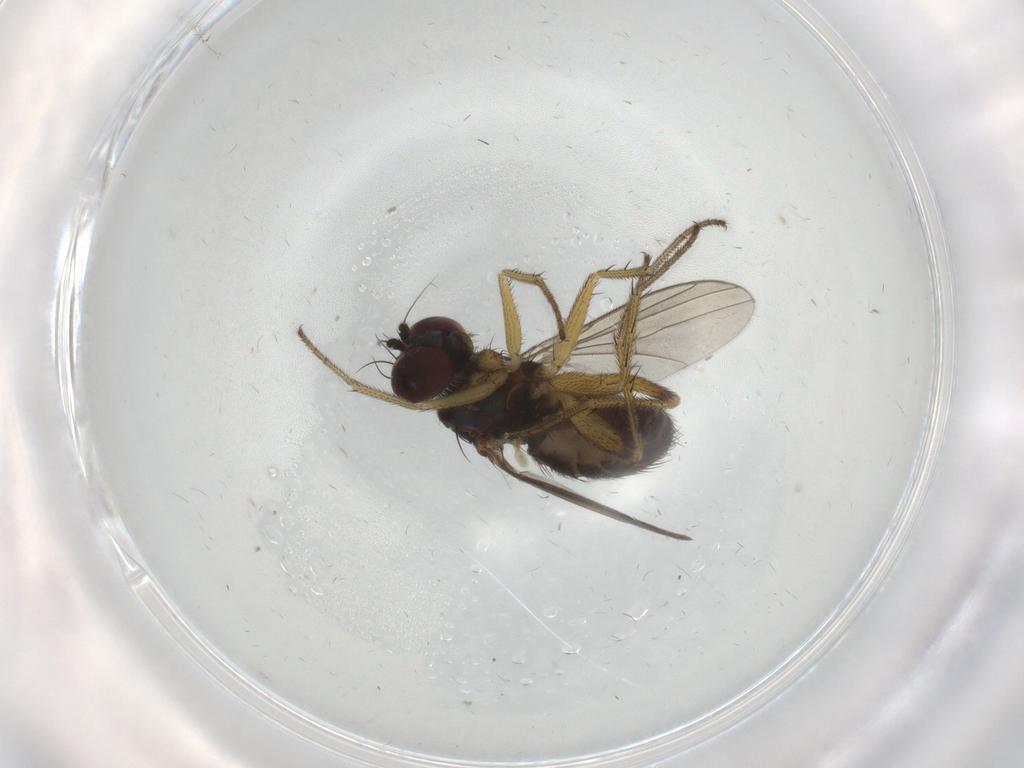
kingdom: Animalia
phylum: Arthropoda
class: Insecta
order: Diptera
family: Dolichopodidae
